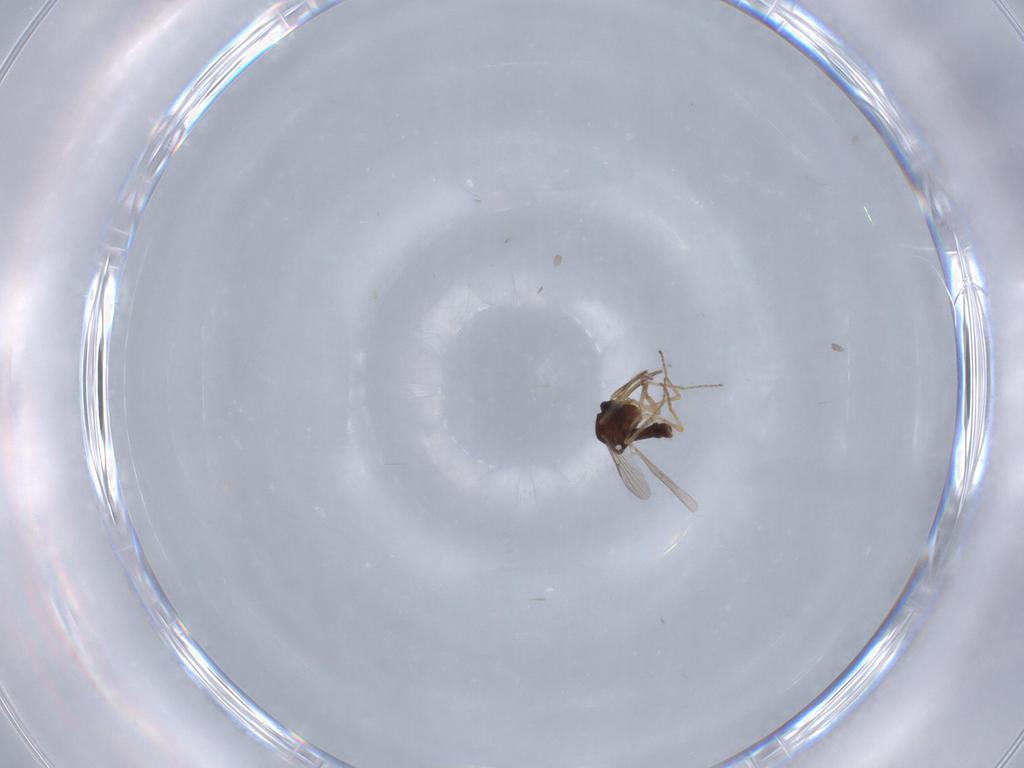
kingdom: Animalia
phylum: Arthropoda
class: Insecta
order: Diptera
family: Ceratopogonidae
